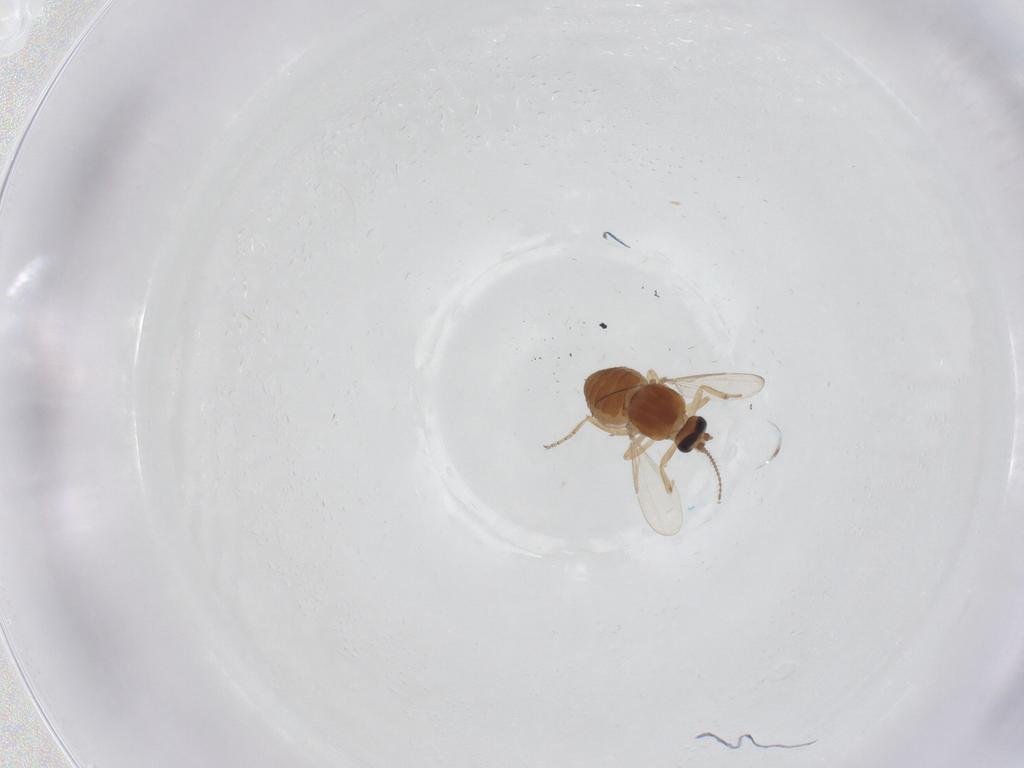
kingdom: Animalia
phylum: Arthropoda
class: Insecta
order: Diptera
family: Ceratopogonidae
